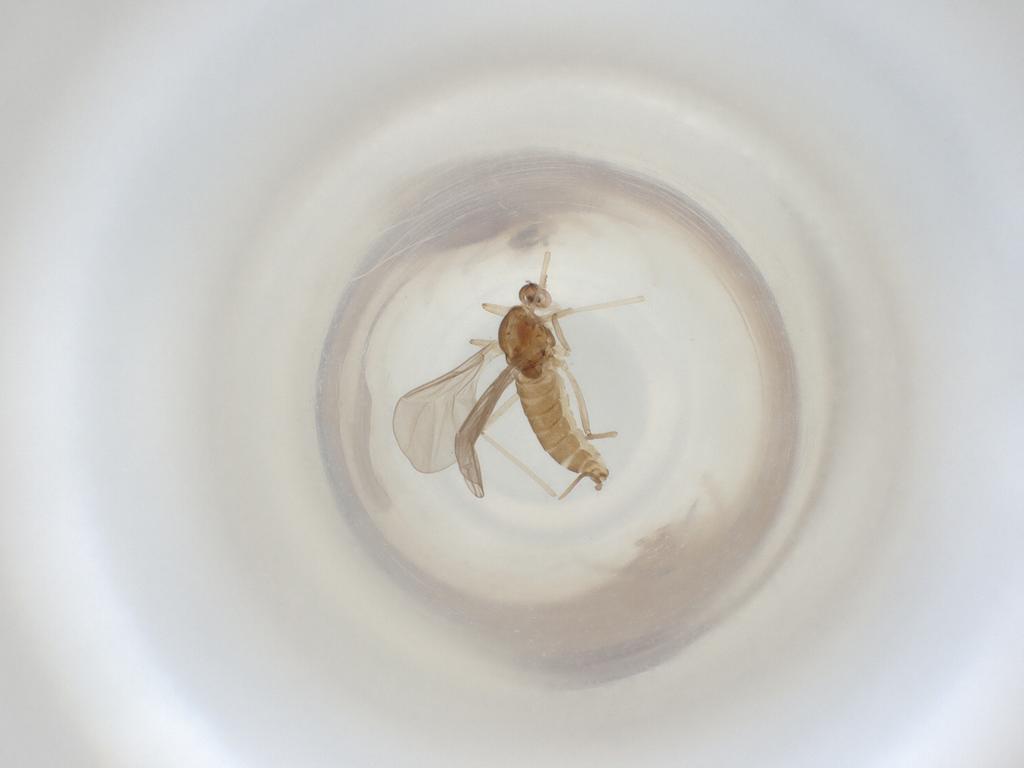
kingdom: Animalia
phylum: Arthropoda
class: Insecta
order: Diptera
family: Cecidomyiidae
